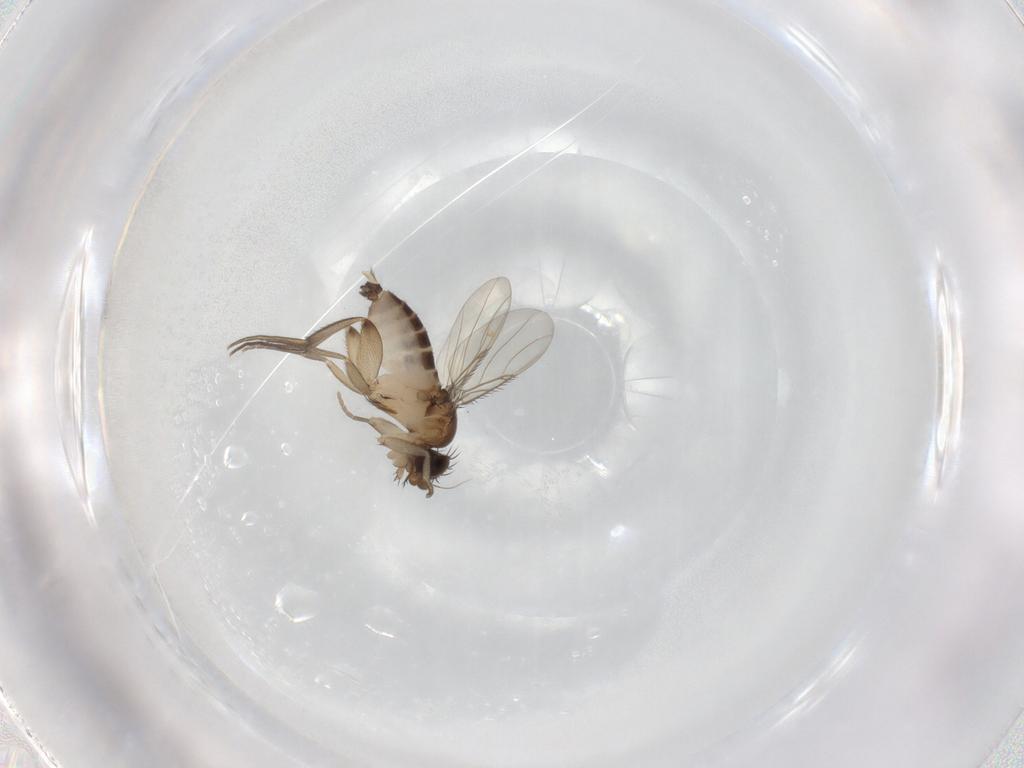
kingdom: Animalia
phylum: Arthropoda
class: Insecta
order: Diptera
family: Phoridae
